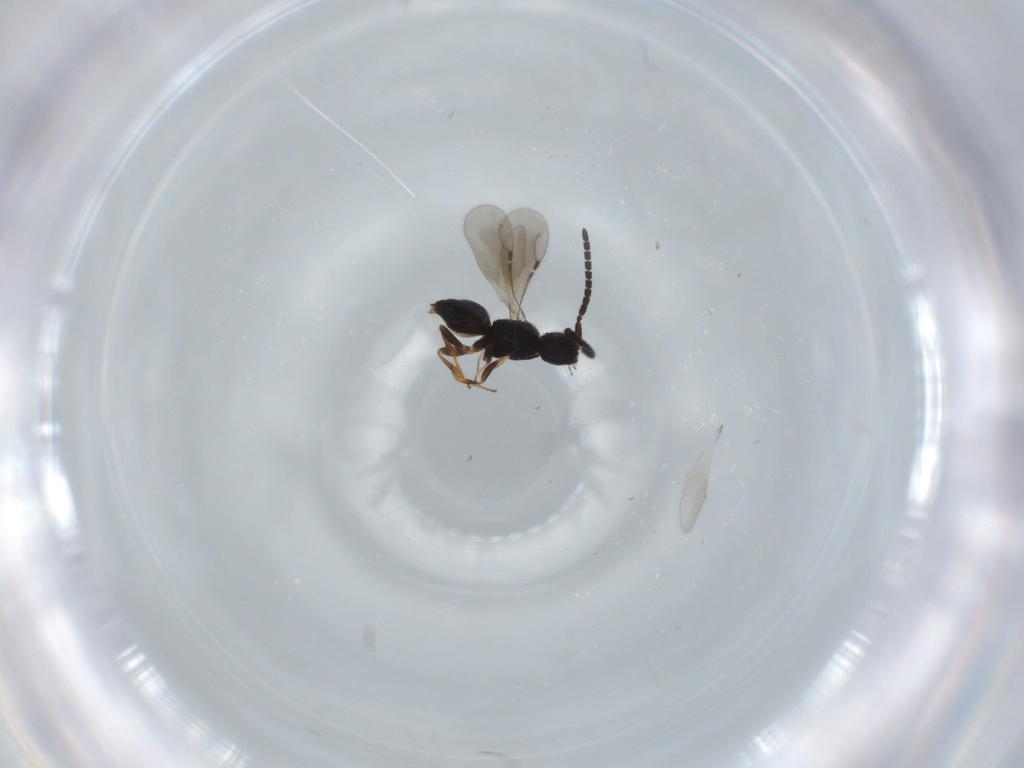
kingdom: Animalia
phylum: Arthropoda
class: Insecta
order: Hymenoptera
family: Ceraphronidae
